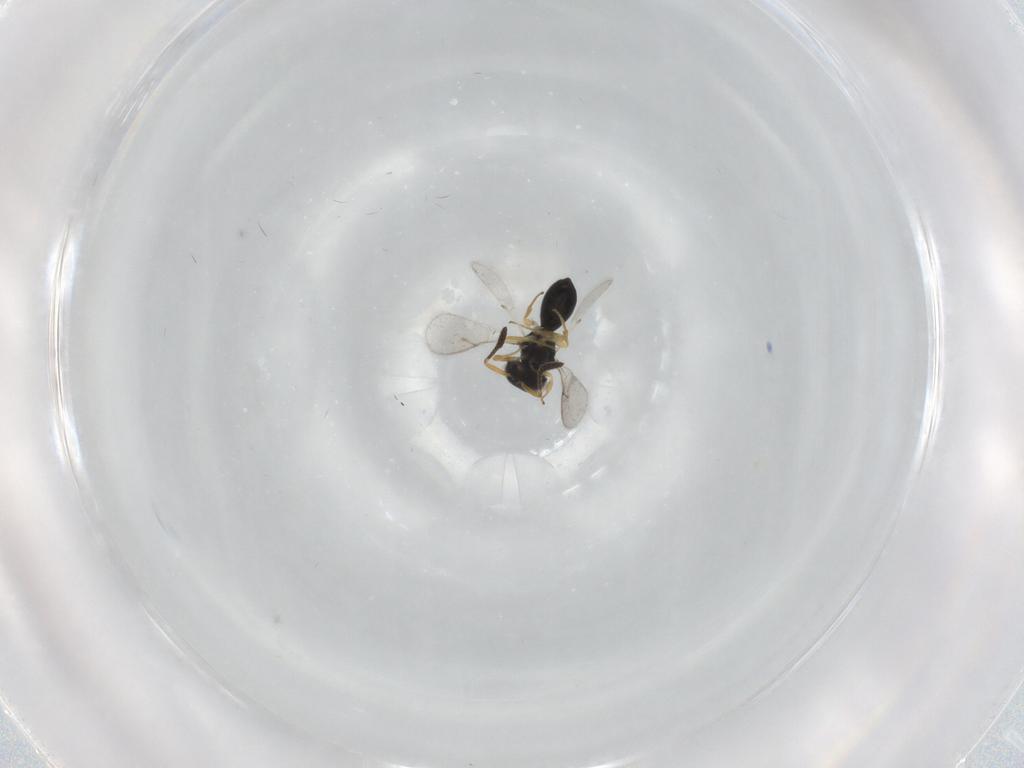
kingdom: Animalia
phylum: Arthropoda
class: Insecta
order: Hymenoptera
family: Scelionidae
